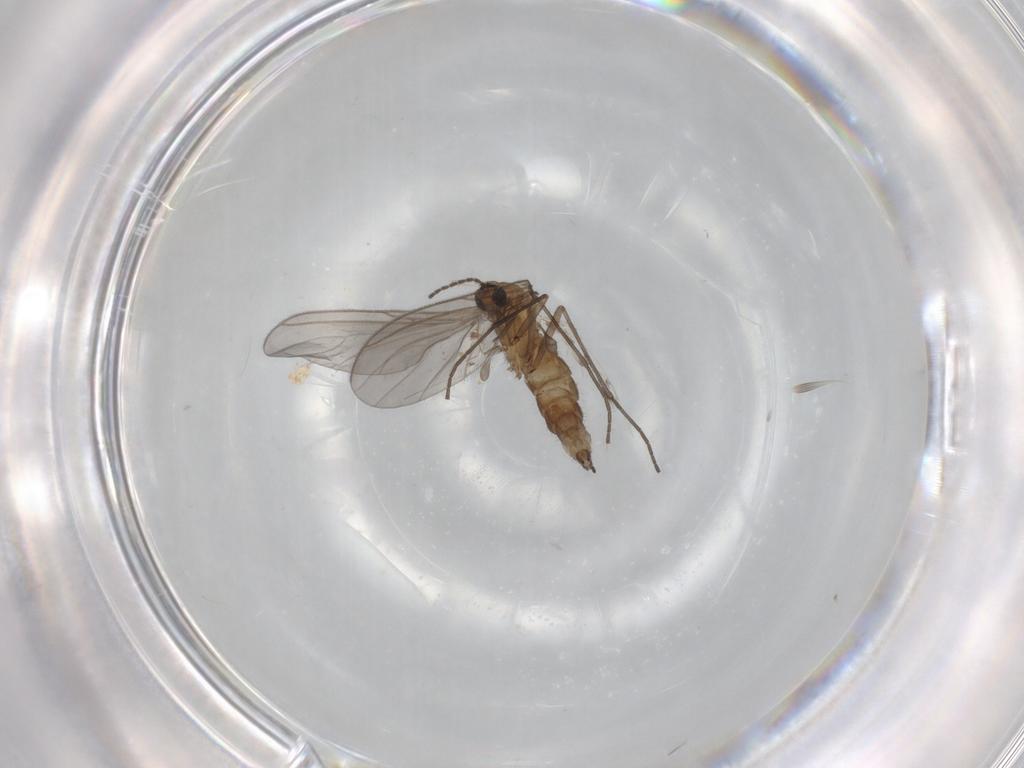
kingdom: Animalia
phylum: Arthropoda
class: Insecta
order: Diptera
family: Sciaridae
